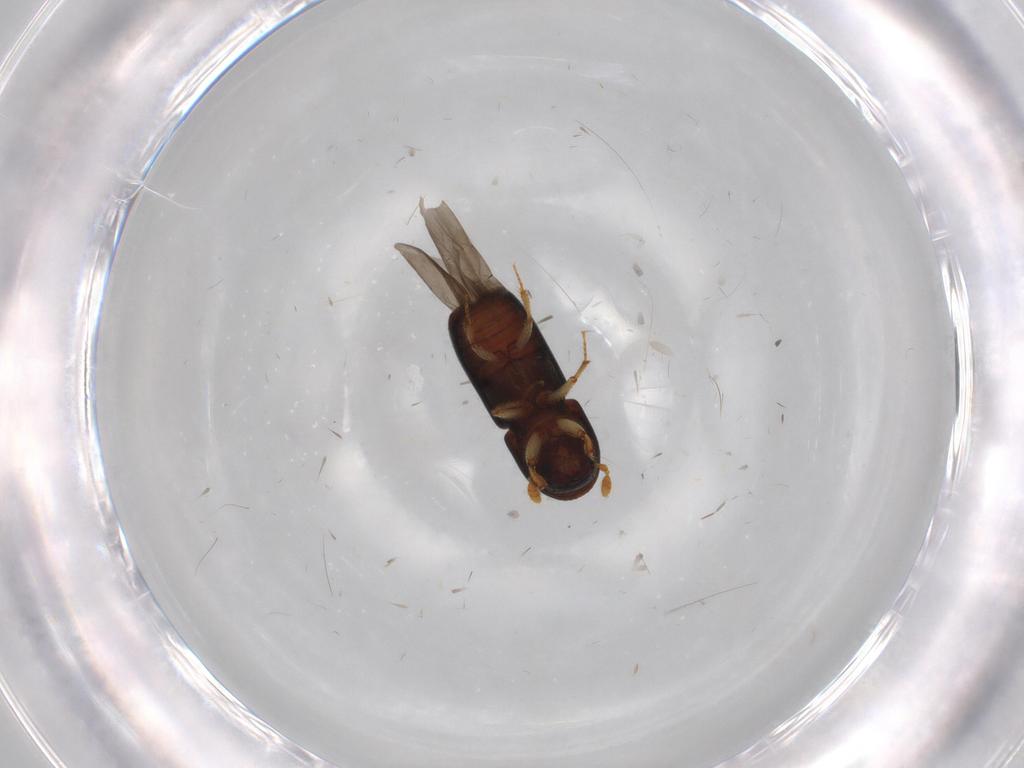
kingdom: Animalia
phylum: Arthropoda
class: Insecta
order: Coleoptera
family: Curculionidae
